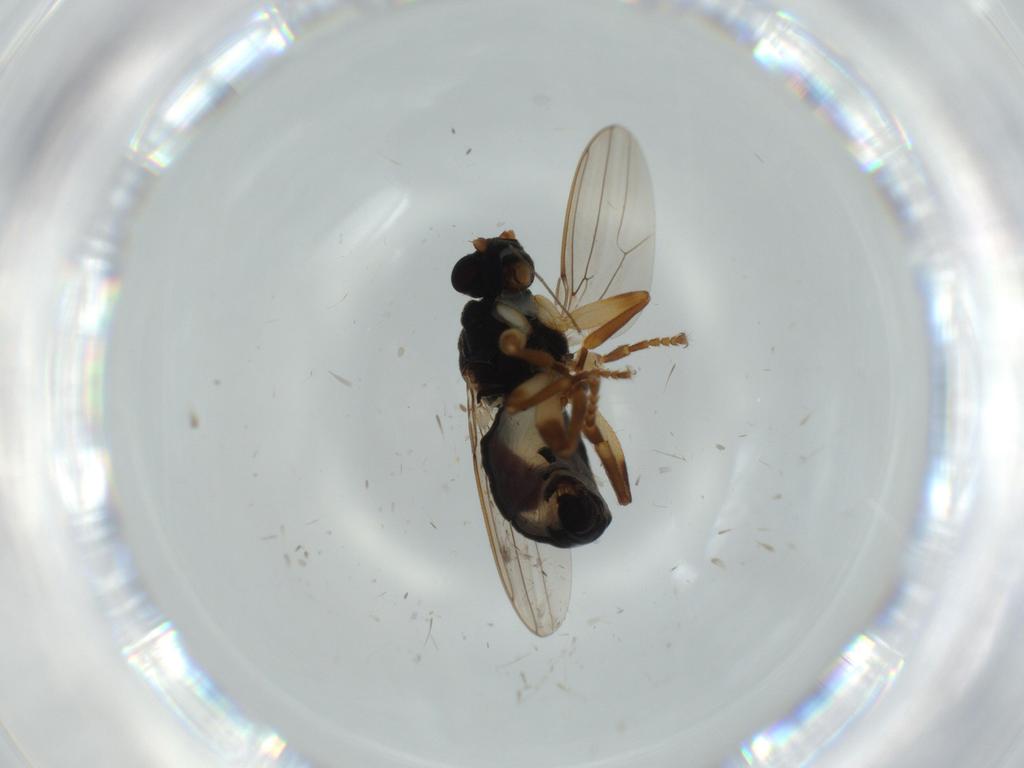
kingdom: Animalia
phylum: Arthropoda
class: Insecta
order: Diptera
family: Sphaeroceridae
